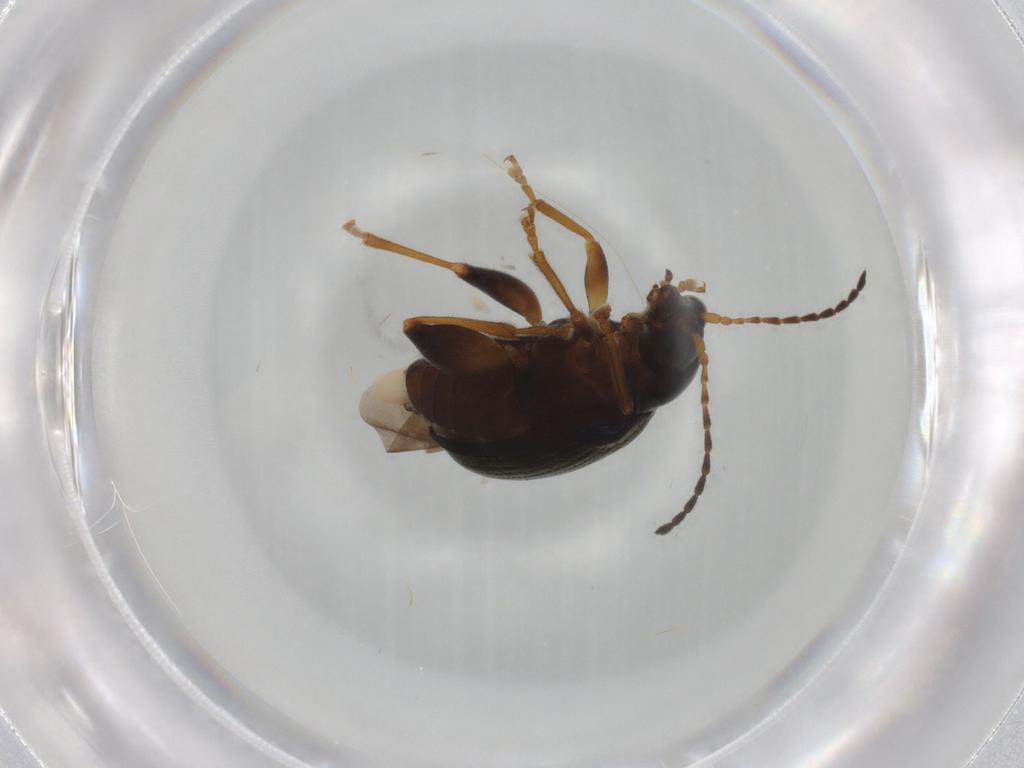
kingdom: Animalia
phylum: Arthropoda
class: Insecta
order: Coleoptera
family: Chrysomelidae
